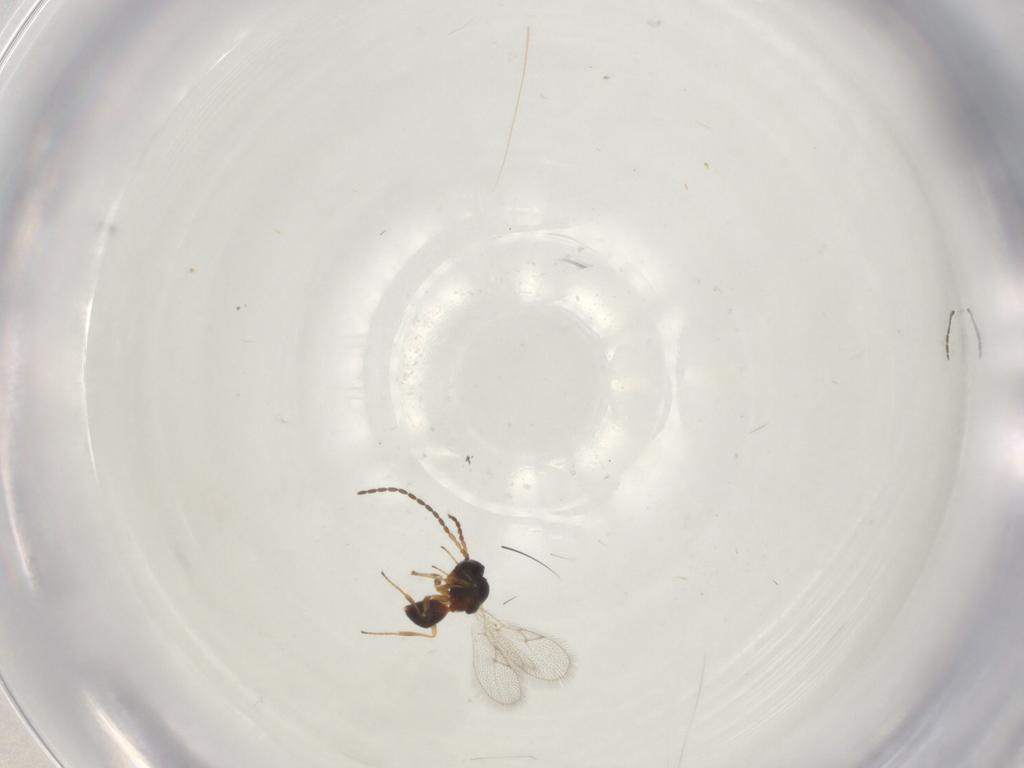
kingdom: Animalia
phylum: Arthropoda
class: Insecta
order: Hymenoptera
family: Figitidae
